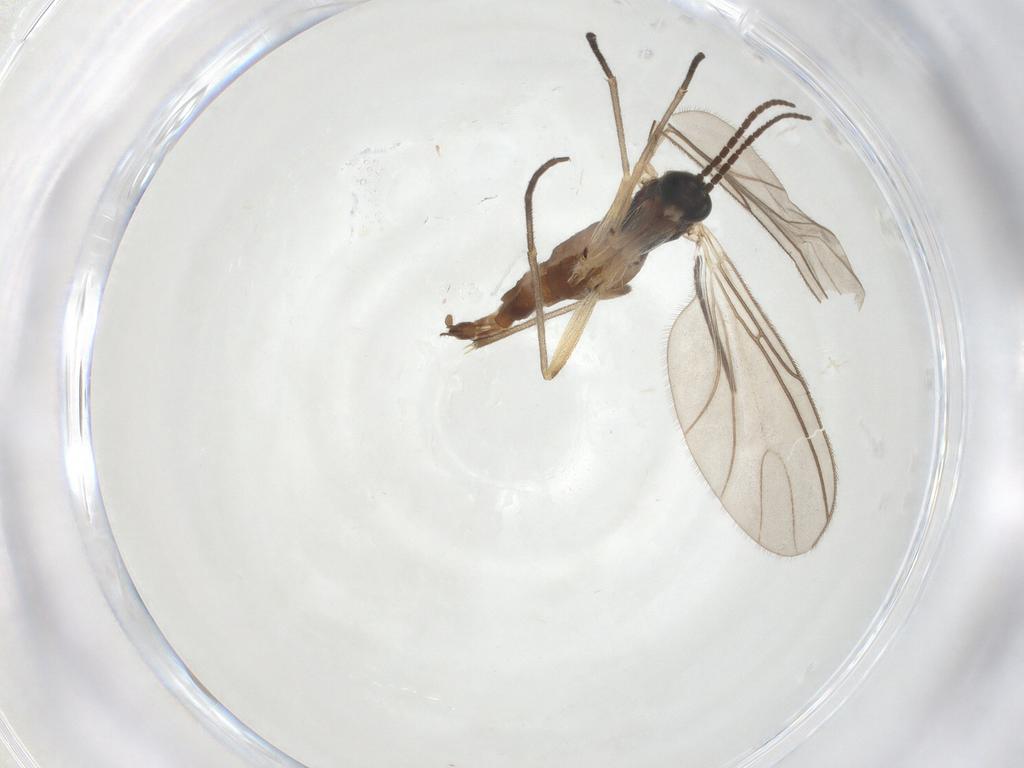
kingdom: Animalia
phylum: Arthropoda
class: Insecta
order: Diptera
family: Sciaridae
